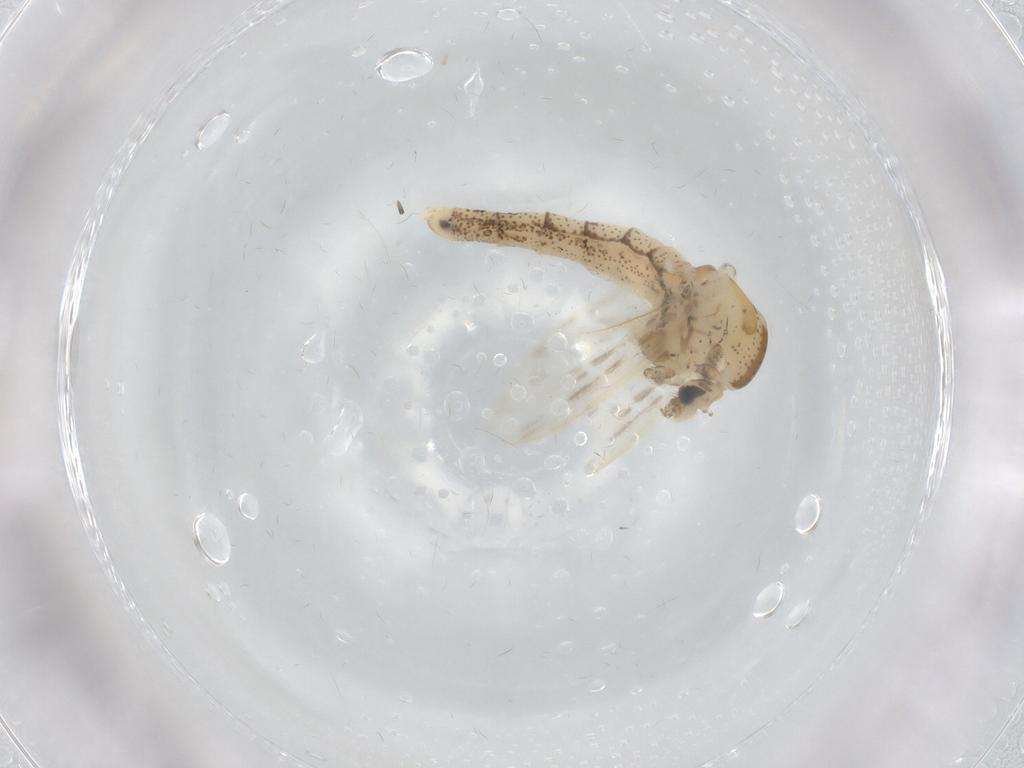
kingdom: Animalia
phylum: Arthropoda
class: Insecta
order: Diptera
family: Chaoboridae
